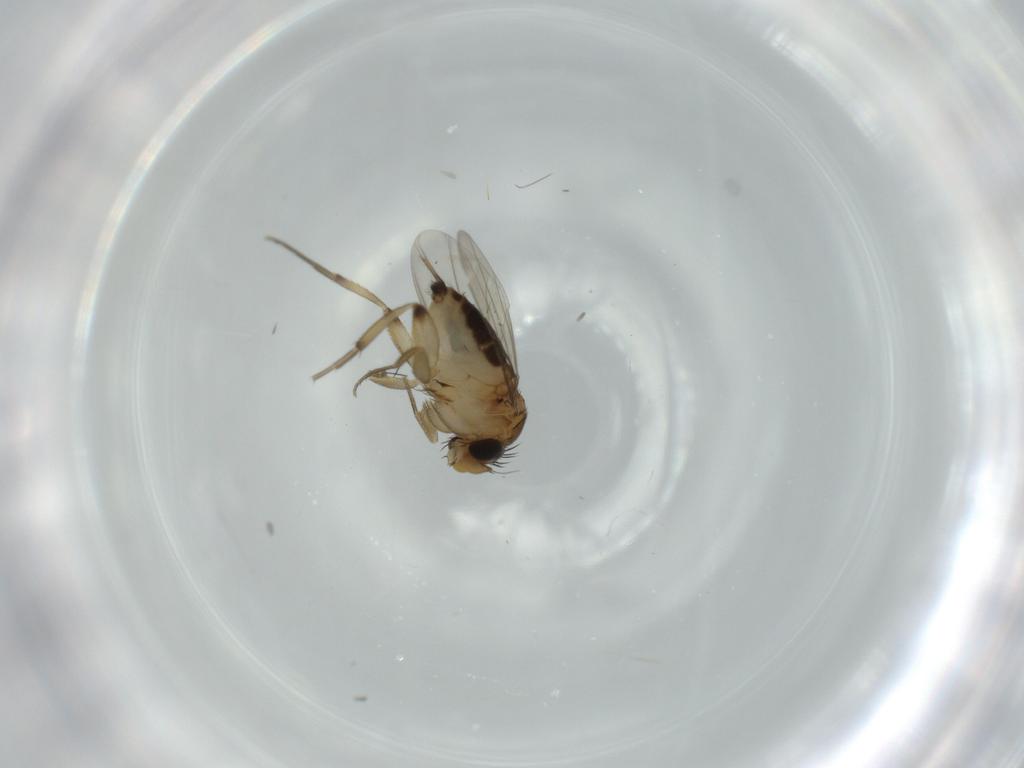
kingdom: Animalia
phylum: Arthropoda
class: Insecta
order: Diptera
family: Phoridae
